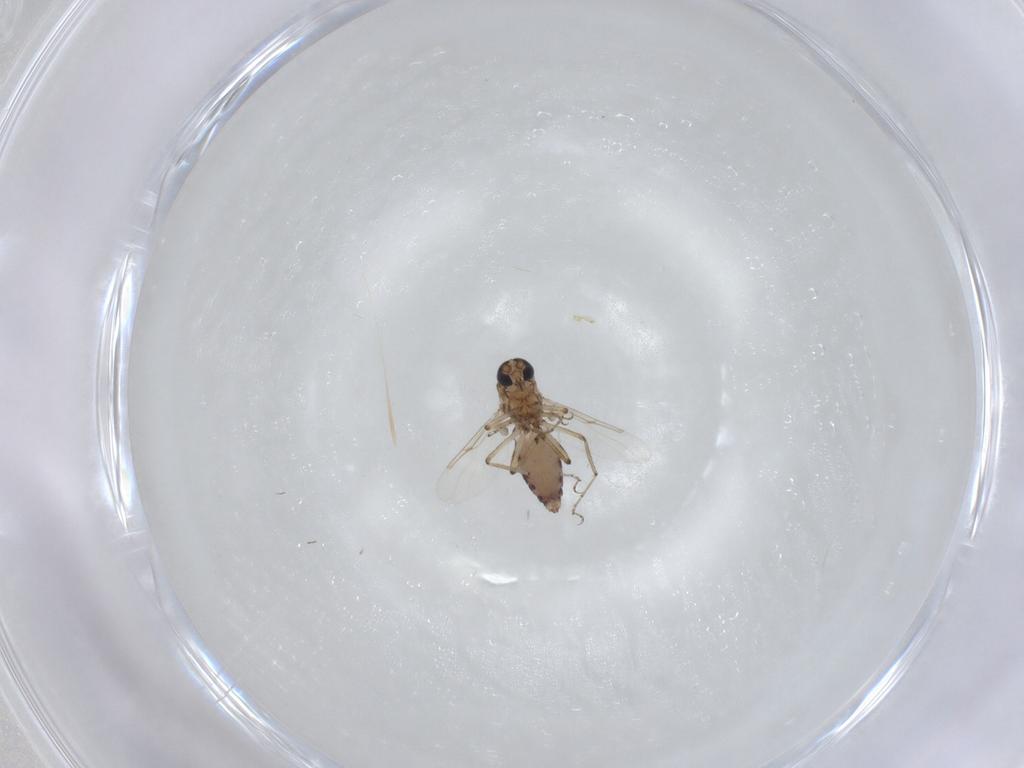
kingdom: Animalia
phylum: Arthropoda
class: Insecta
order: Diptera
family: Ceratopogonidae
